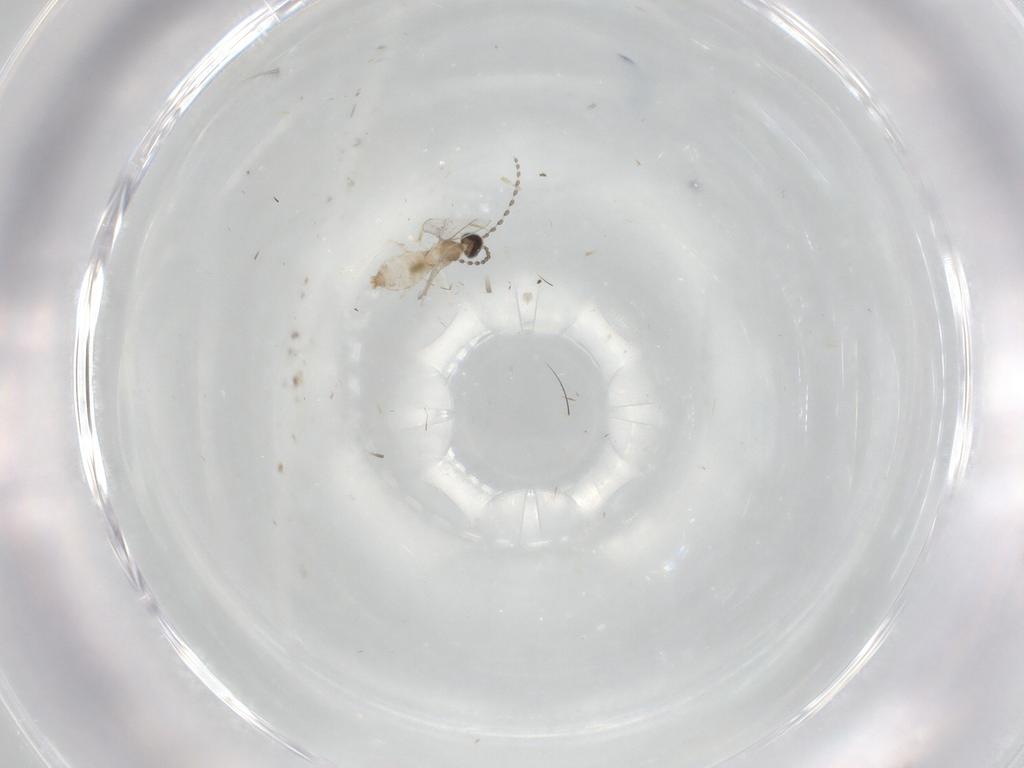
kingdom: Animalia
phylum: Arthropoda
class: Insecta
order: Diptera
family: Cecidomyiidae
